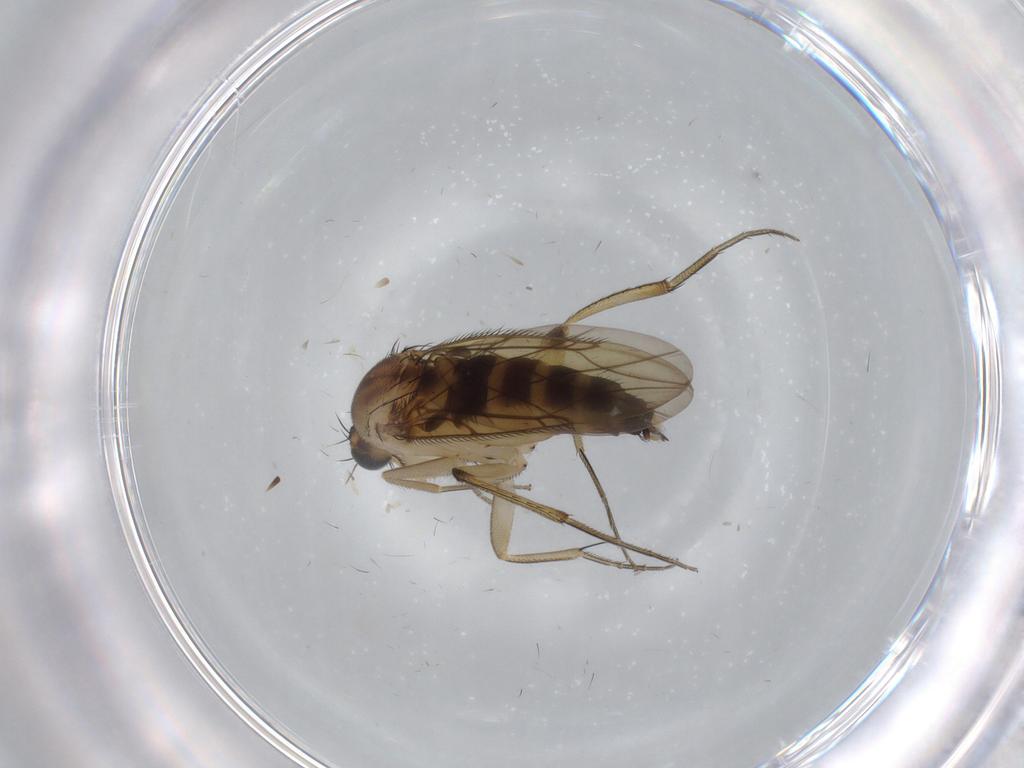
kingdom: Animalia
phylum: Arthropoda
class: Insecta
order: Diptera
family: Phoridae
